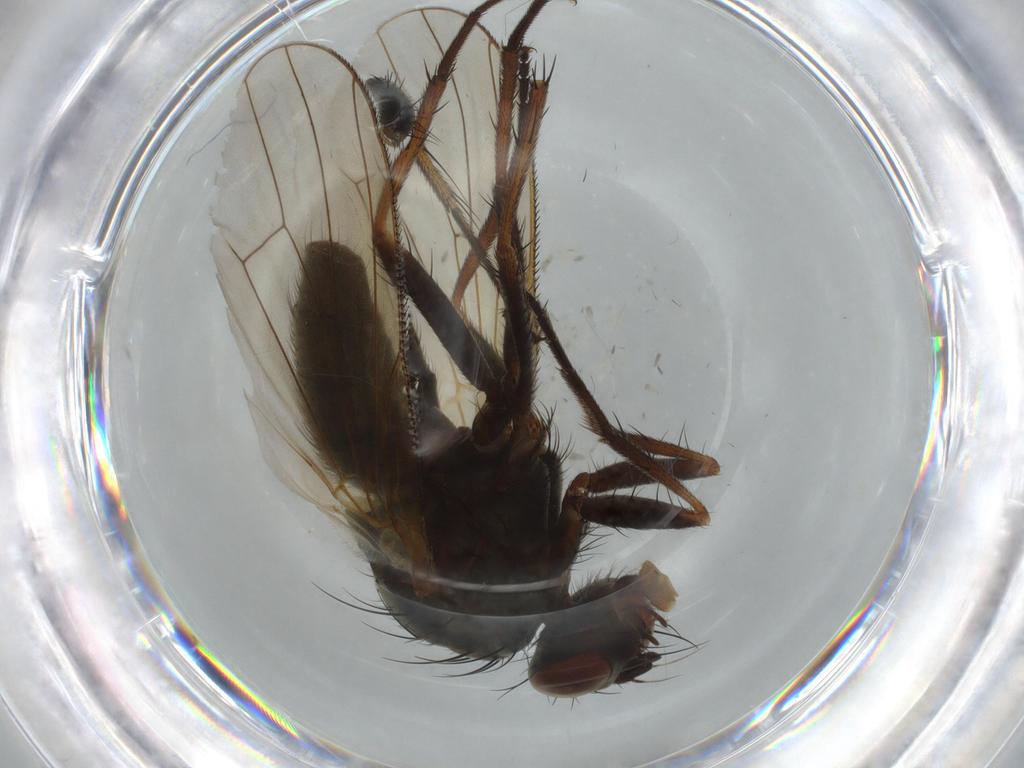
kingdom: Animalia
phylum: Arthropoda
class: Insecta
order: Diptera
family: Anthomyiidae
